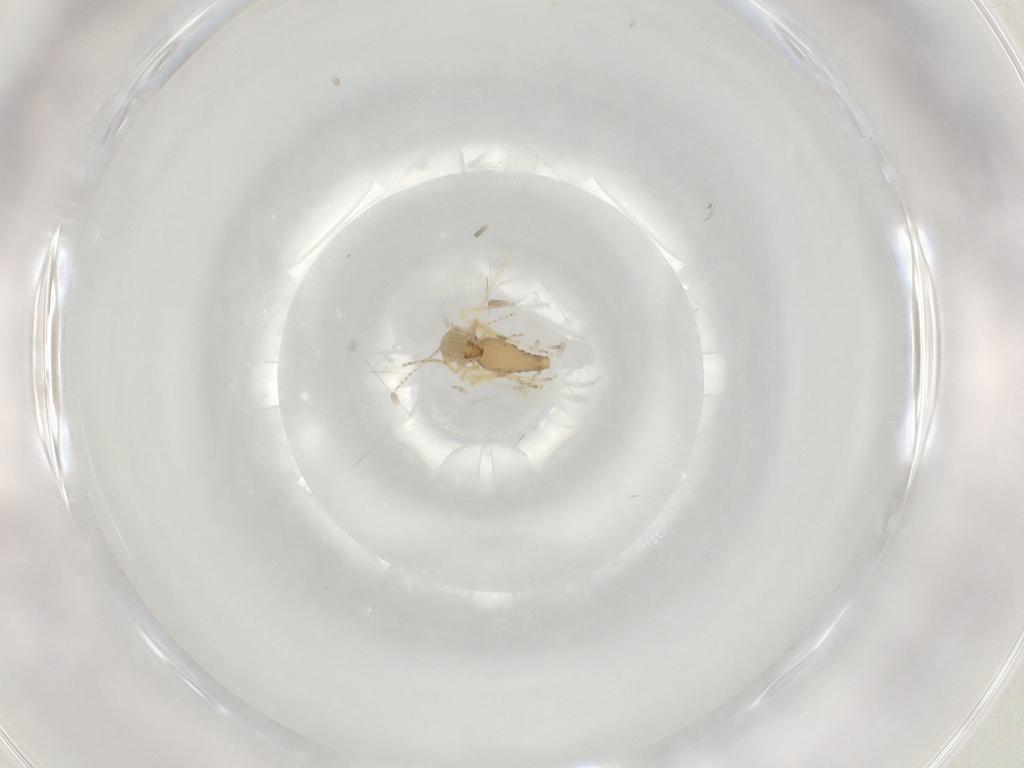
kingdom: Animalia
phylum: Arthropoda
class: Insecta
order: Diptera
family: Ceratopogonidae
